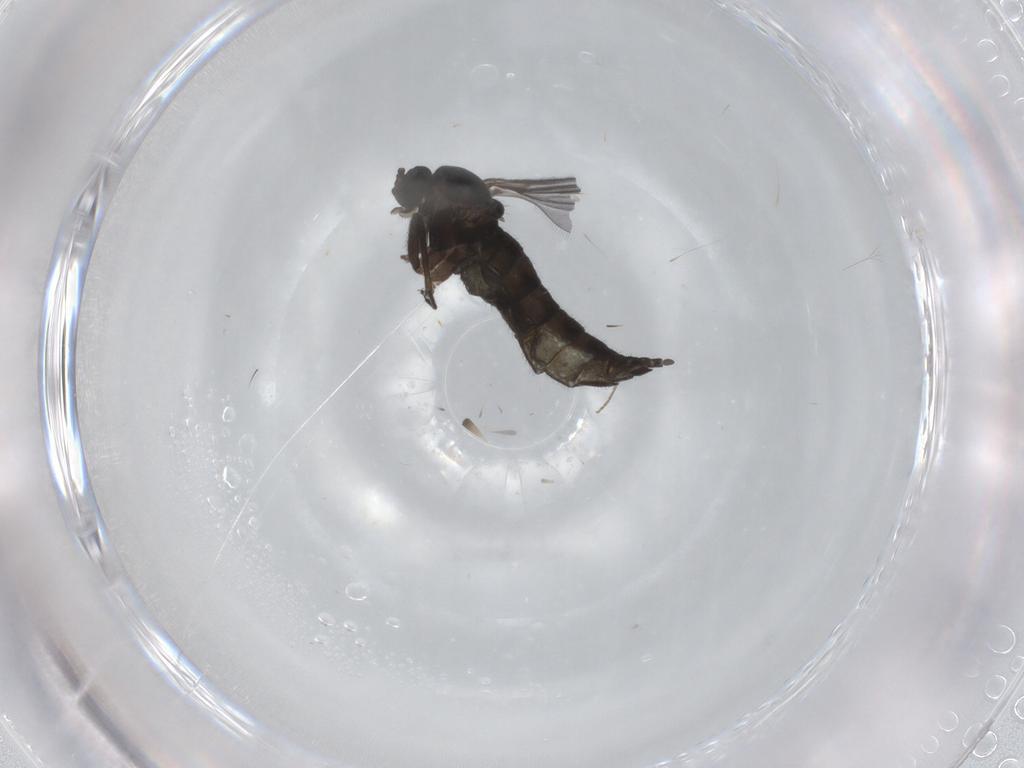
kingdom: Animalia
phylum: Arthropoda
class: Insecta
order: Diptera
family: Sciaridae
